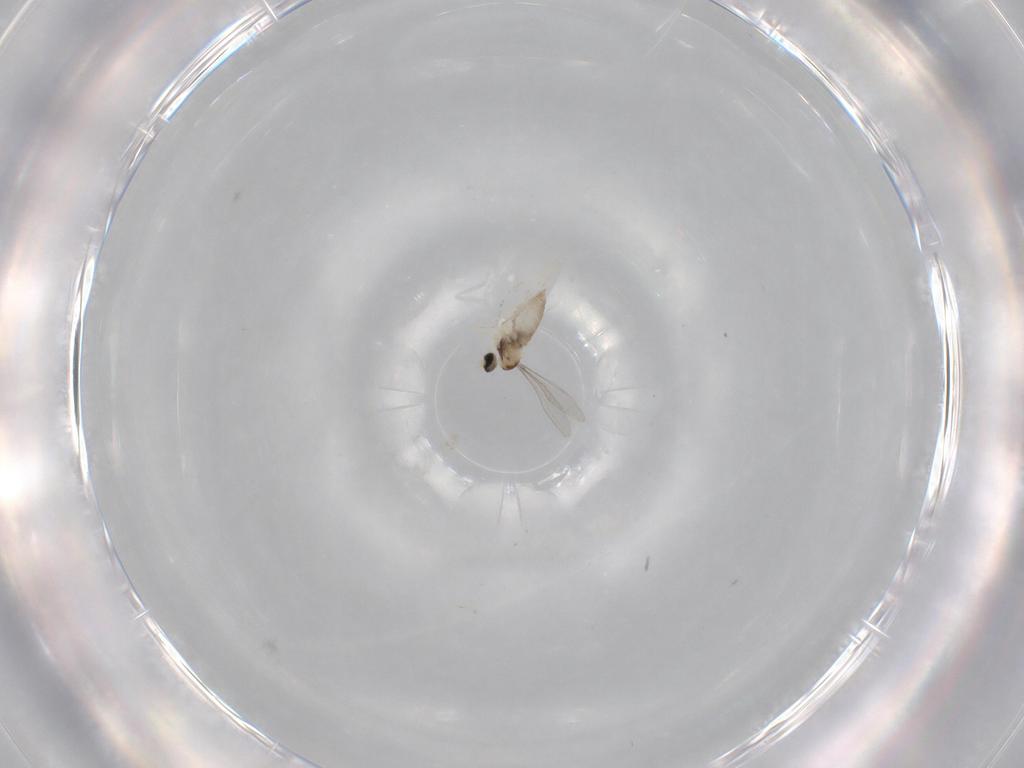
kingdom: Animalia
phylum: Arthropoda
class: Insecta
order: Diptera
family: Cecidomyiidae
